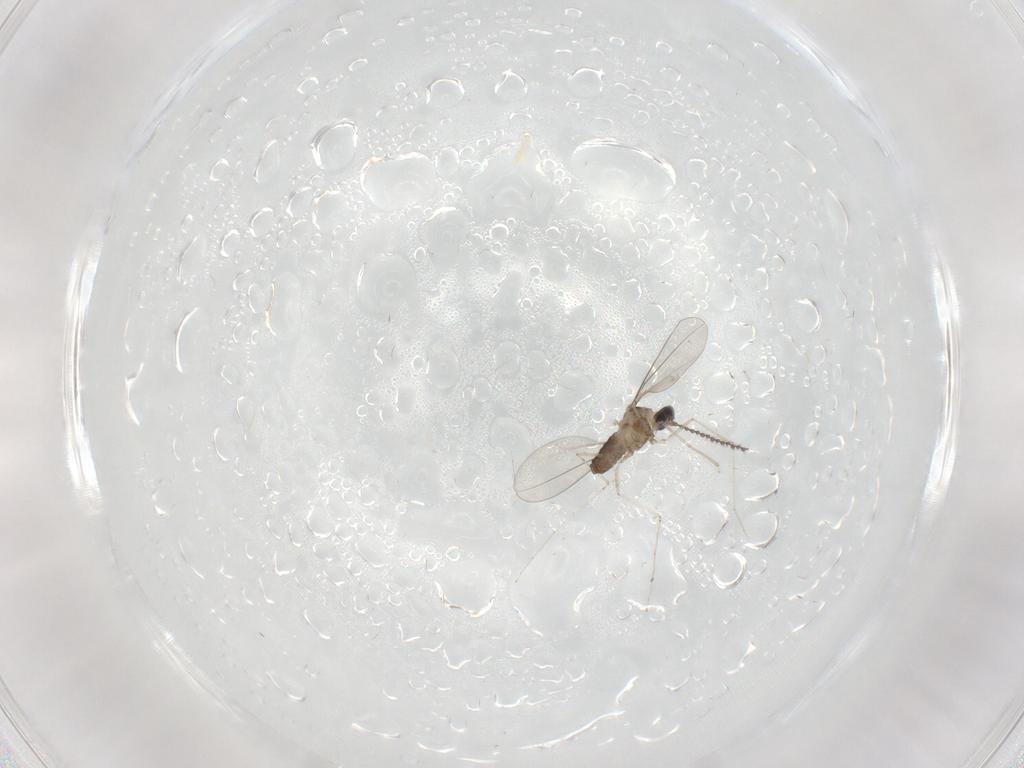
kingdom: Animalia
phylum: Arthropoda
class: Insecta
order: Diptera
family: Cecidomyiidae
